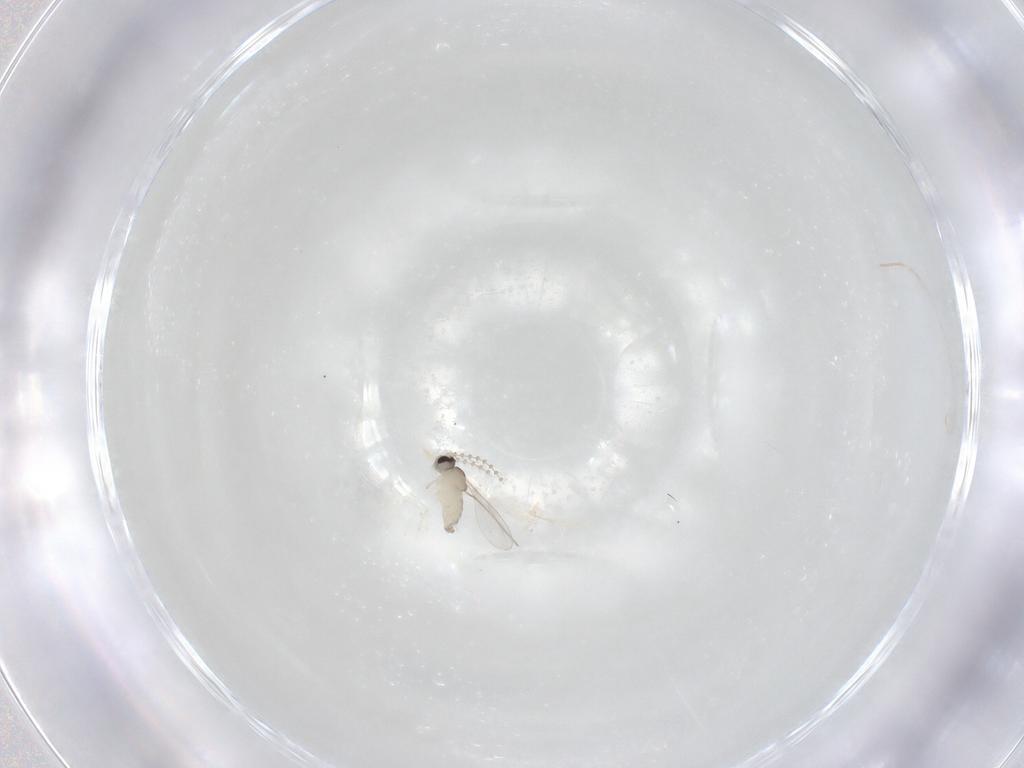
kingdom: Animalia
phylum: Arthropoda
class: Insecta
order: Diptera
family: Cecidomyiidae
